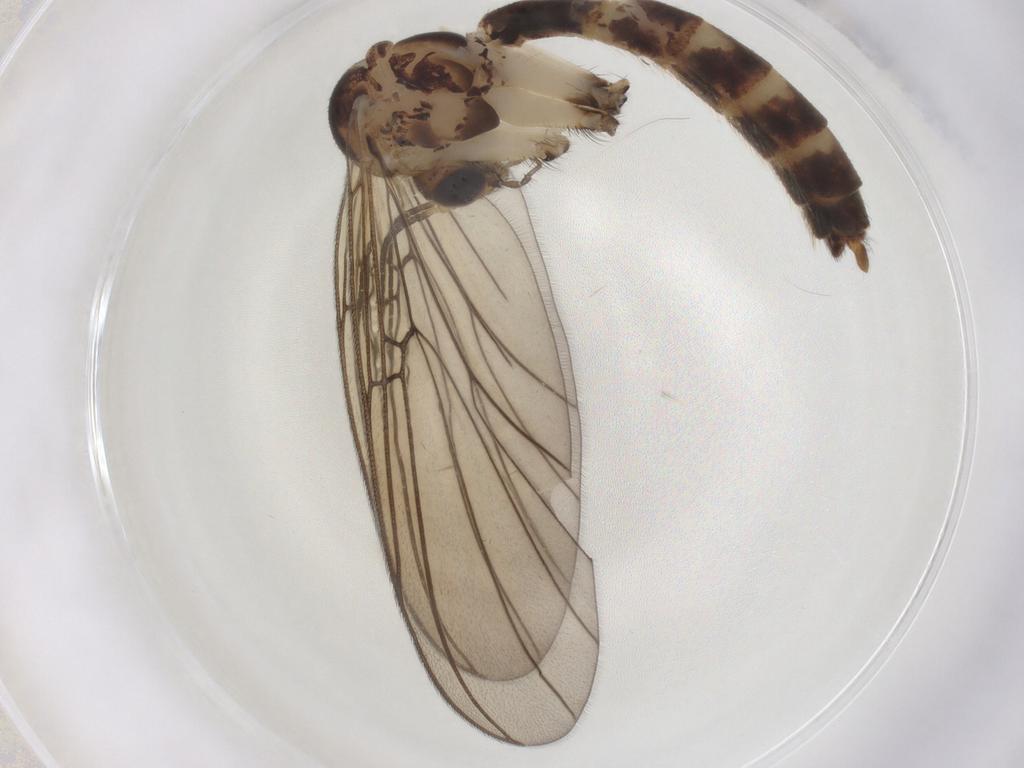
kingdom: Animalia
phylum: Arthropoda
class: Insecta
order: Diptera
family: Mycetophilidae
